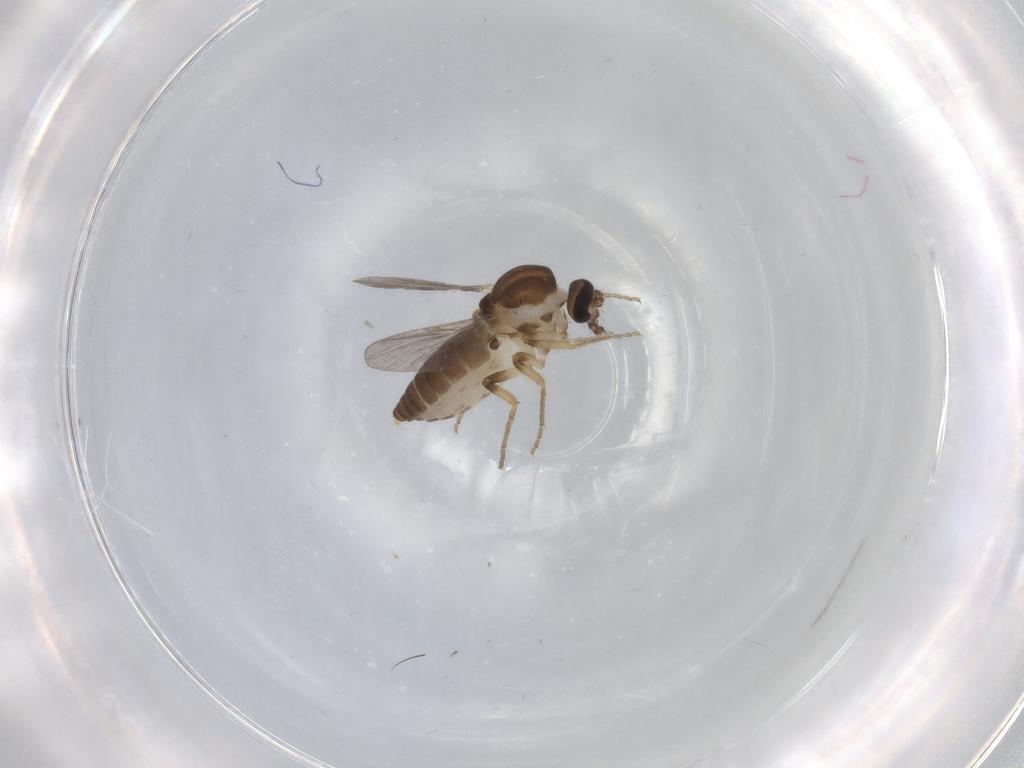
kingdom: Animalia
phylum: Arthropoda
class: Insecta
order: Diptera
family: Ceratopogonidae
